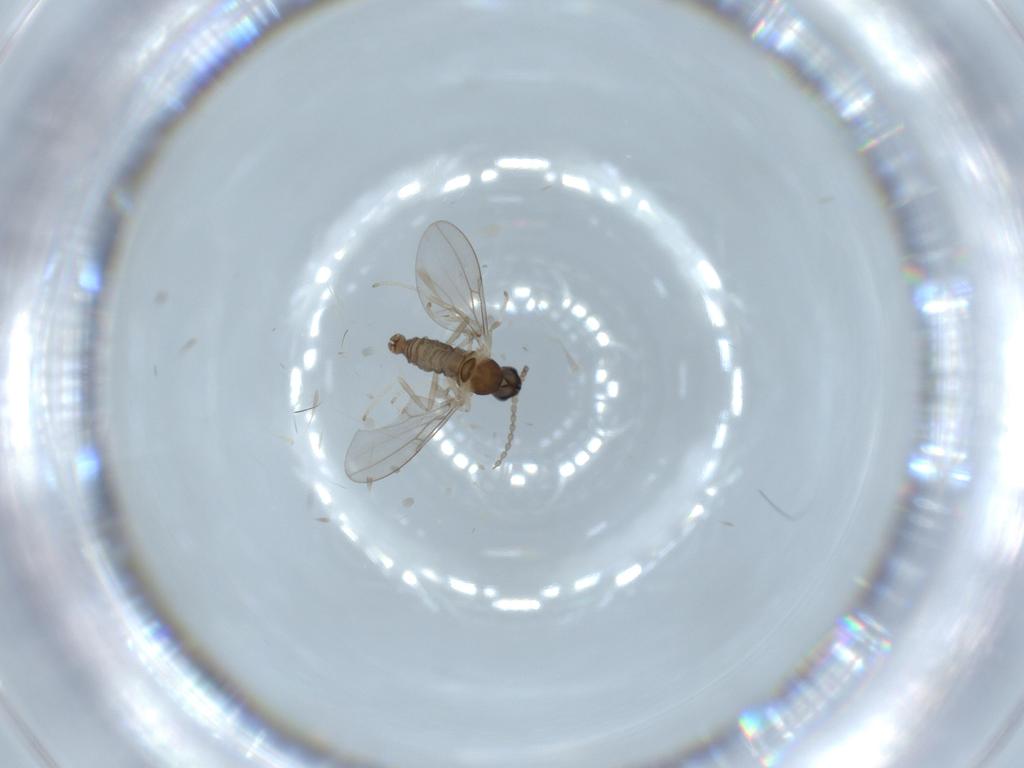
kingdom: Animalia
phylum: Arthropoda
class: Insecta
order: Diptera
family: Cecidomyiidae
